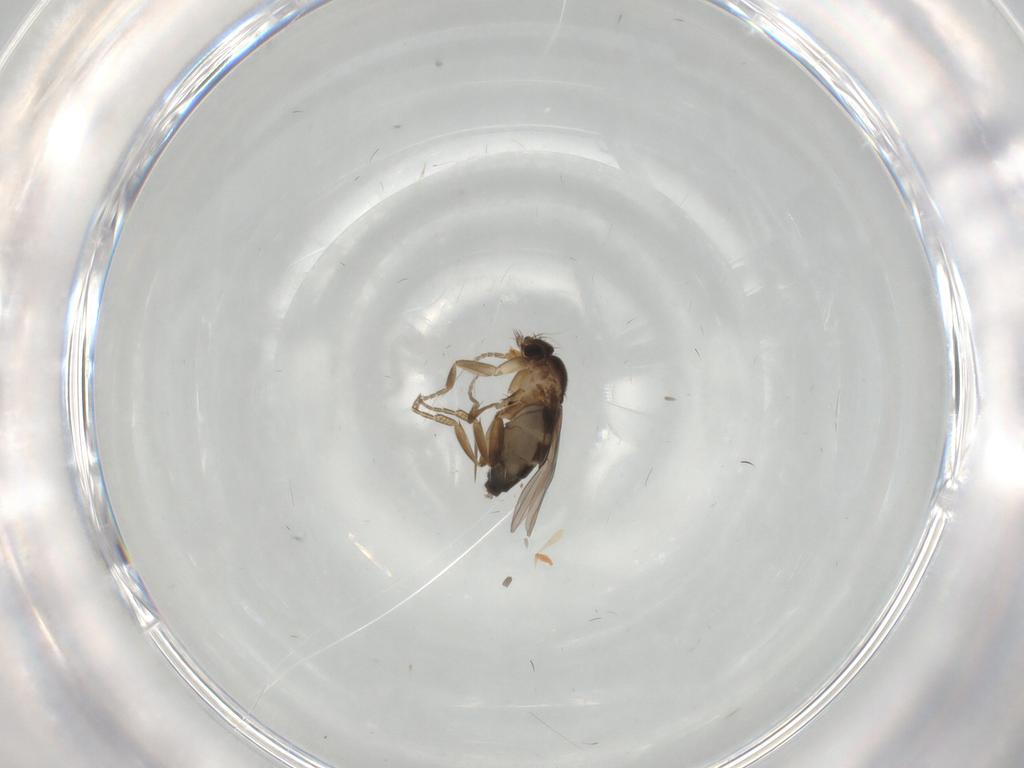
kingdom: Animalia
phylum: Arthropoda
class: Insecta
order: Diptera
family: Phoridae
